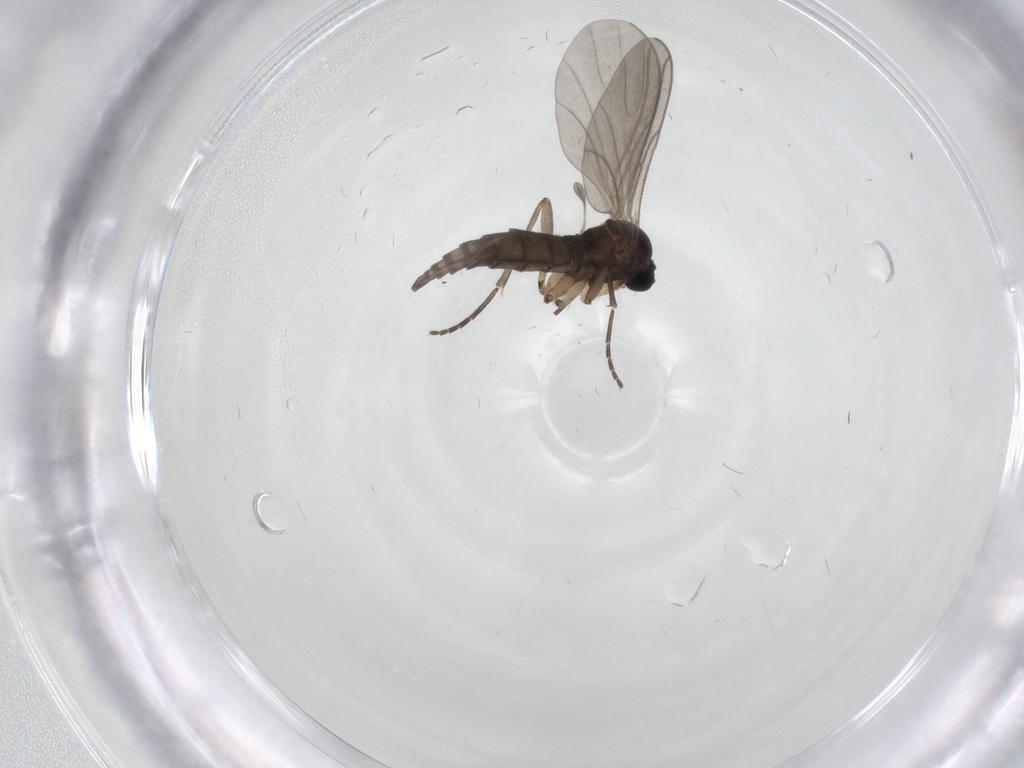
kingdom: Animalia
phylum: Arthropoda
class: Insecta
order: Diptera
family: Sciaridae
